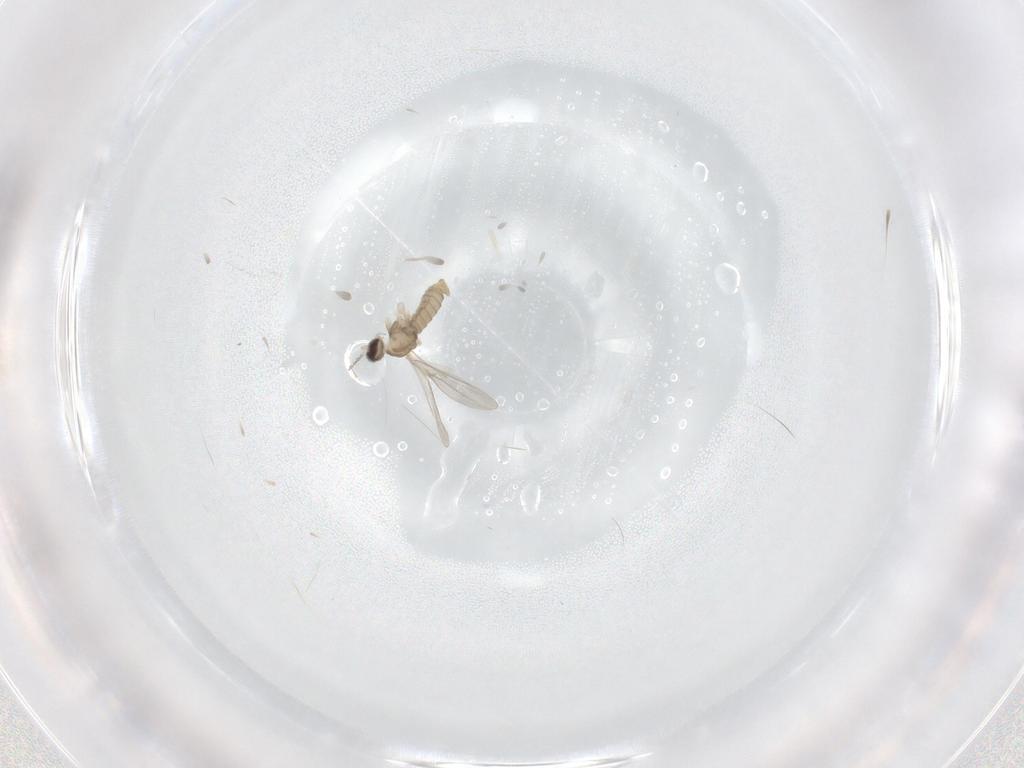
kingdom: Animalia
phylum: Arthropoda
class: Insecta
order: Diptera
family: Cecidomyiidae
